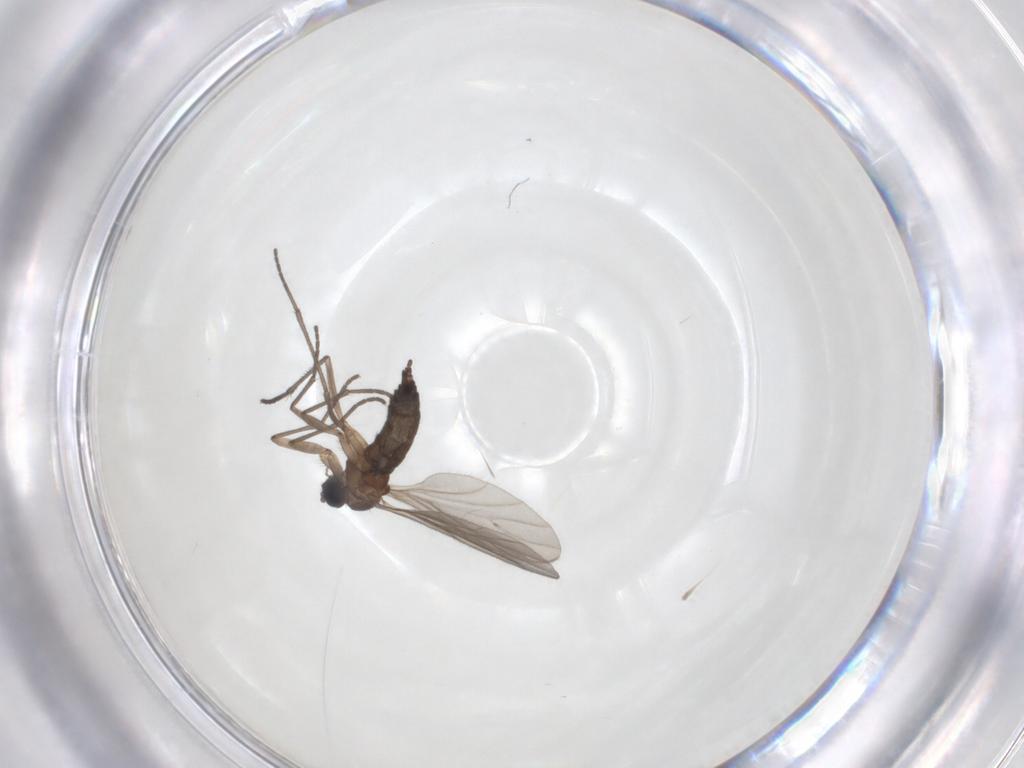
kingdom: Animalia
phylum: Arthropoda
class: Insecta
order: Diptera
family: Sciaridae
